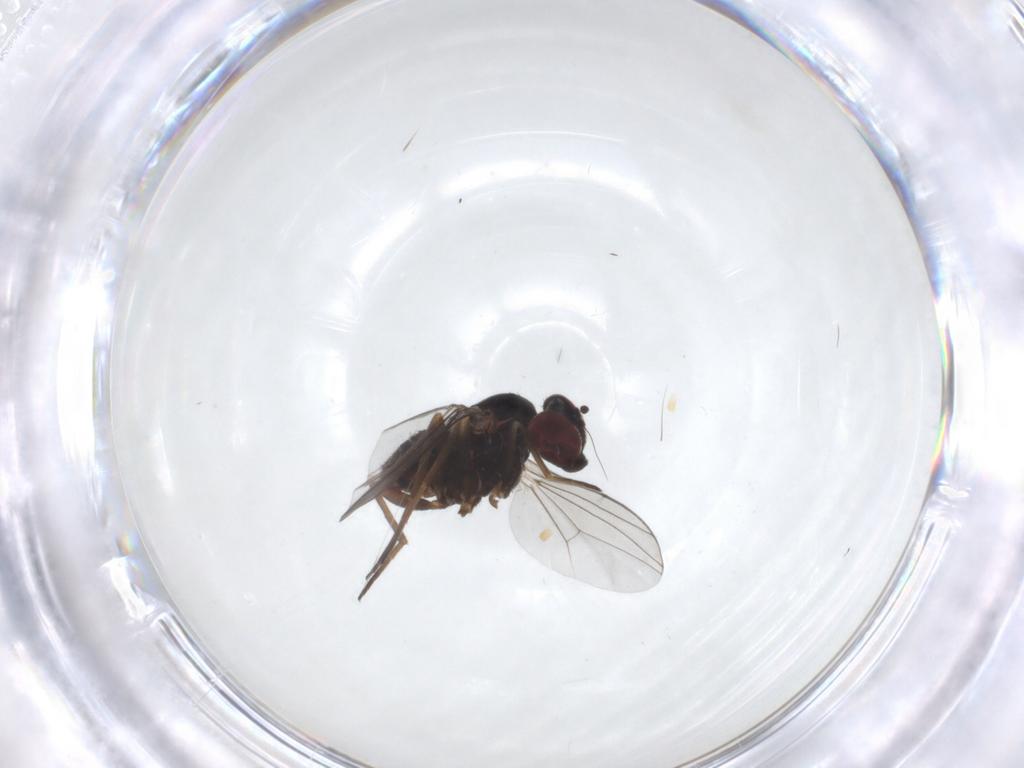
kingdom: Animalia
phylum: Arthropoda
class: Insecta
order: Diptera
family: Dolichopodidae
